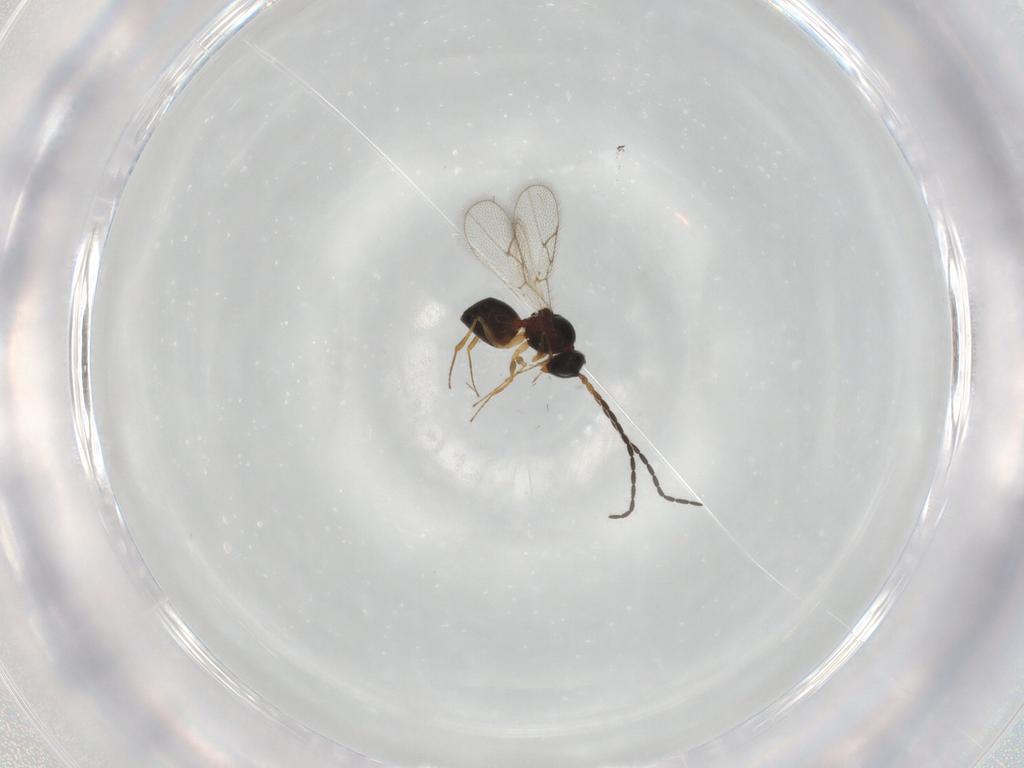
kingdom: Animalia
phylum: Arthropoda
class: Insecta
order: Hymenoptera
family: Figitidae
